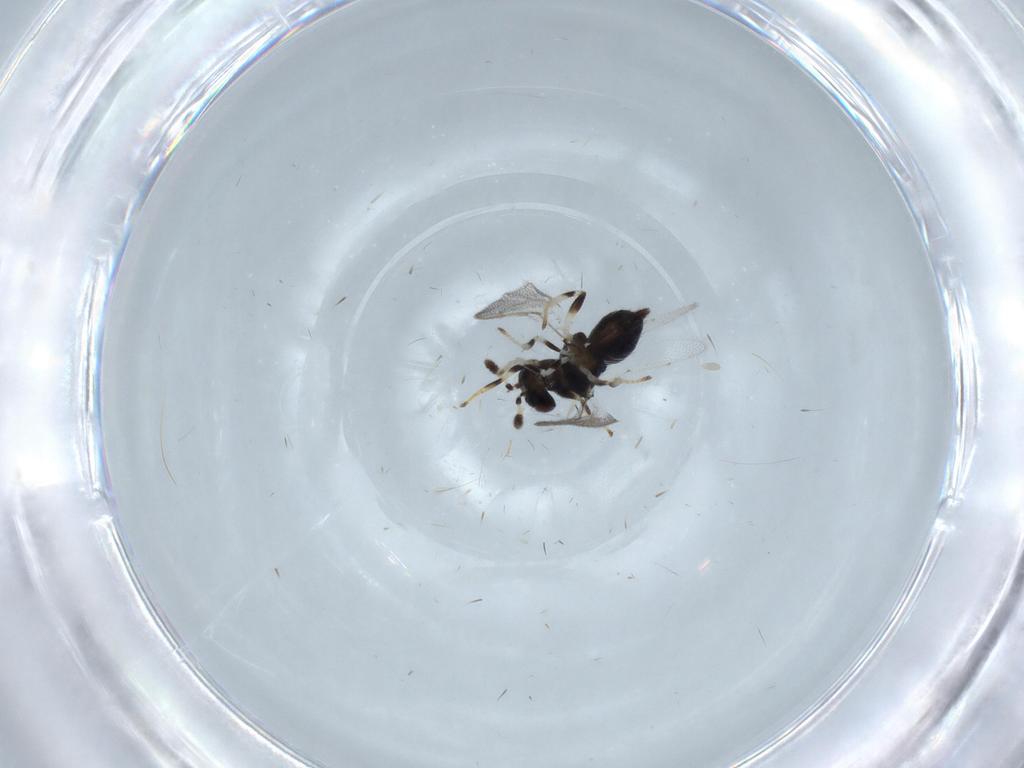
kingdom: Animalia
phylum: Arthropoda
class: Insecta
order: Hymenoptera
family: Pirenidae
